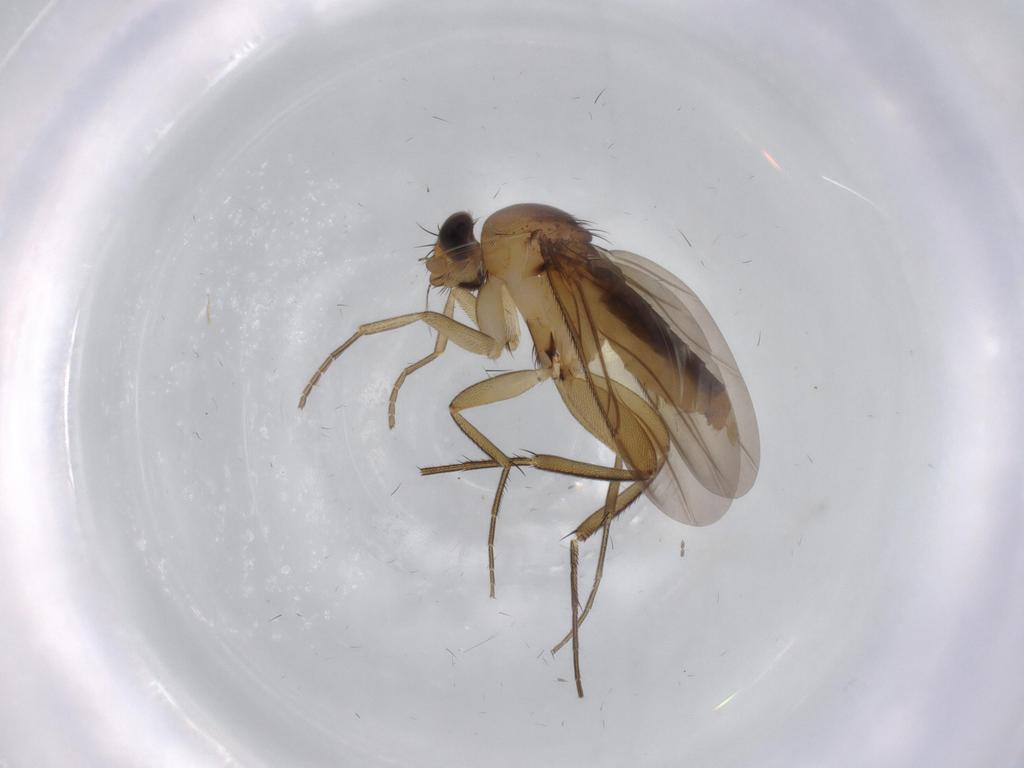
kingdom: Animalia
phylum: Arthropoda
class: Insecta
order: Diptera
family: Phoridae
